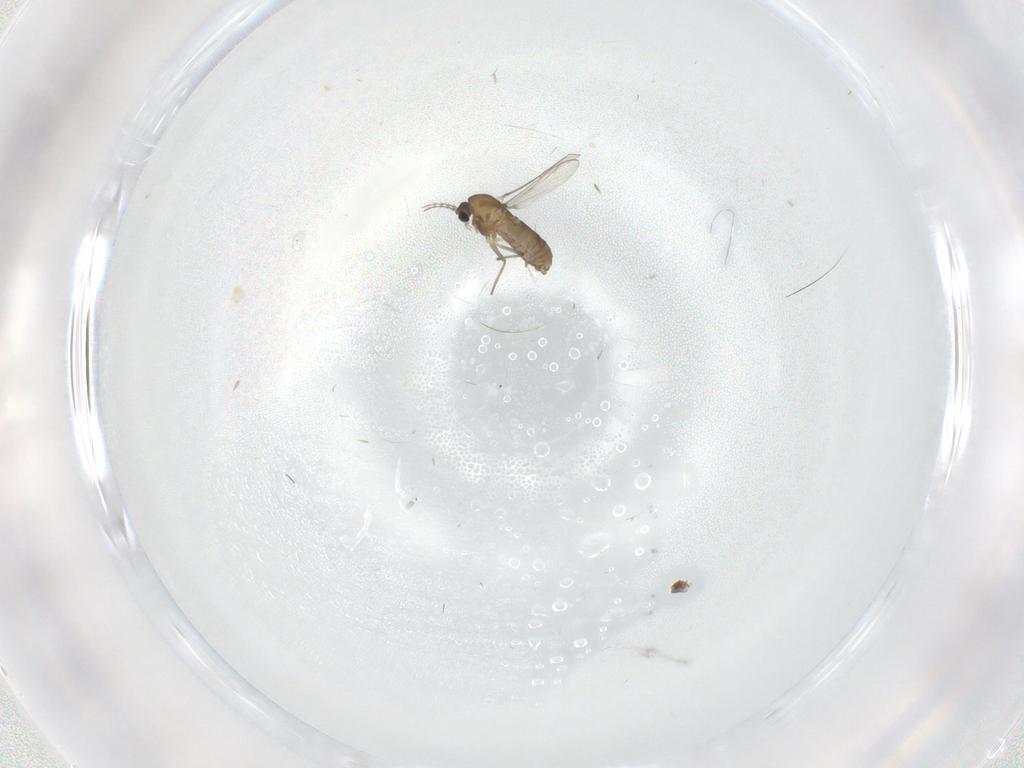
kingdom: Animalia
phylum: Arthropoda
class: Insecta
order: Diptera
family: Chironomidae
